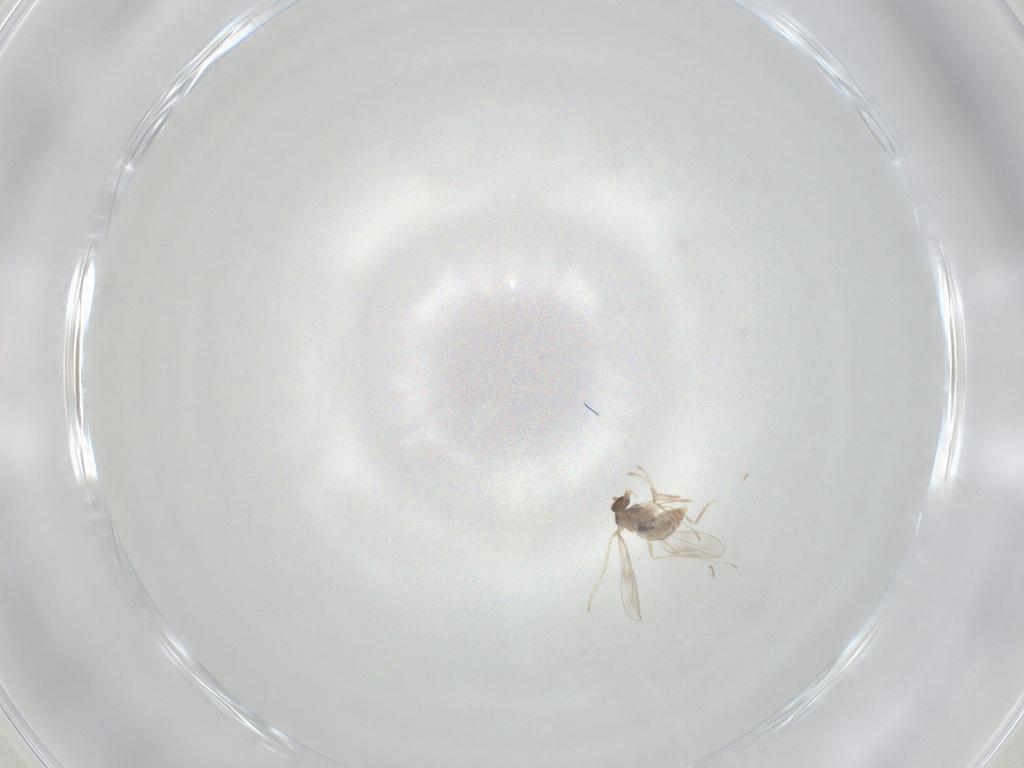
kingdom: Animalia
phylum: Arthropoda
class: Insecta
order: Diptera
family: Cecidomyiidae
